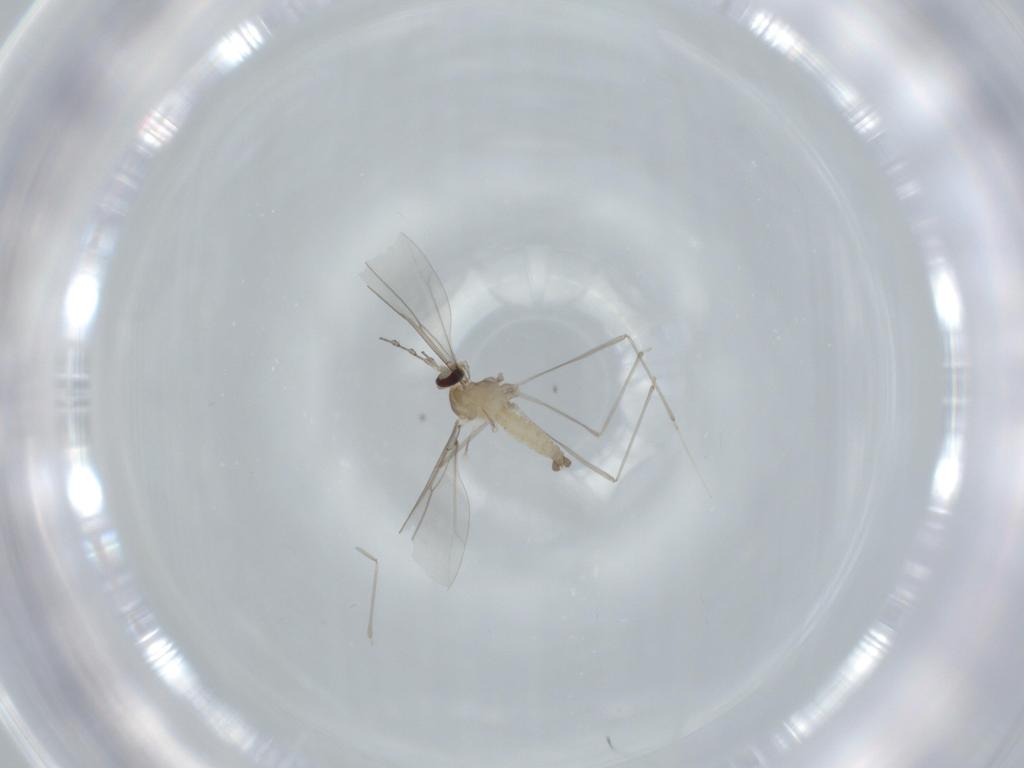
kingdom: Animalia
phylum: Arthropoda
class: Insecta
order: Diptera
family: Cecidomyiidae
